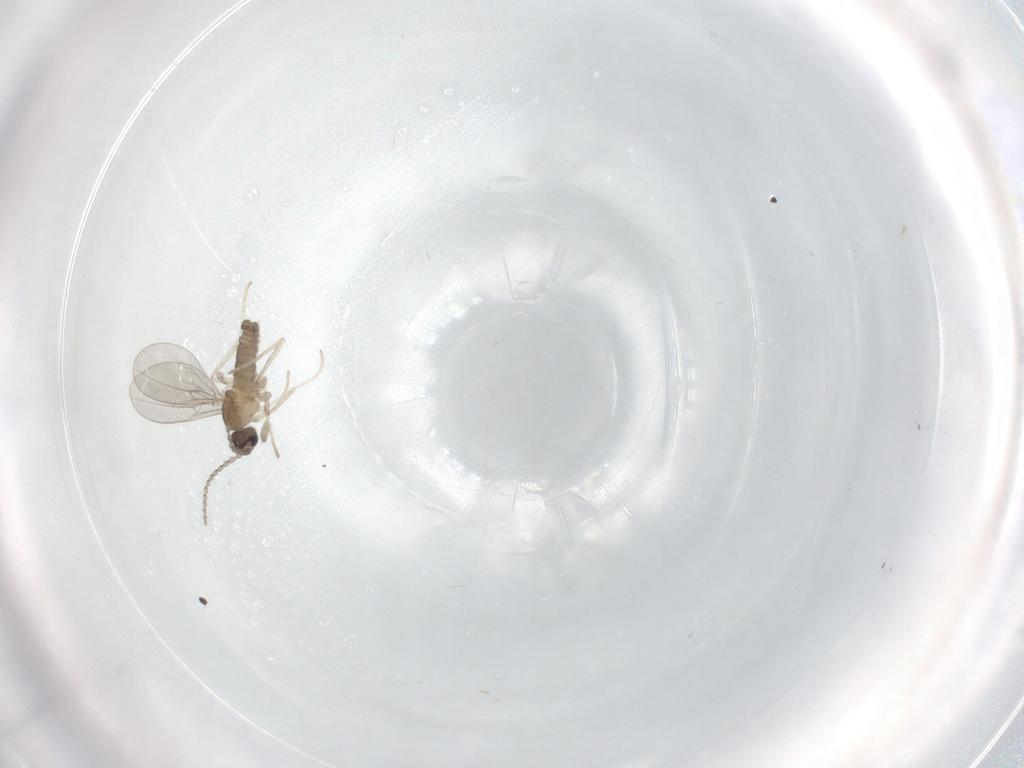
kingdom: Animalia
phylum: Arthropoda
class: Insecta
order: Diptera
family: Cecidomyiidae
